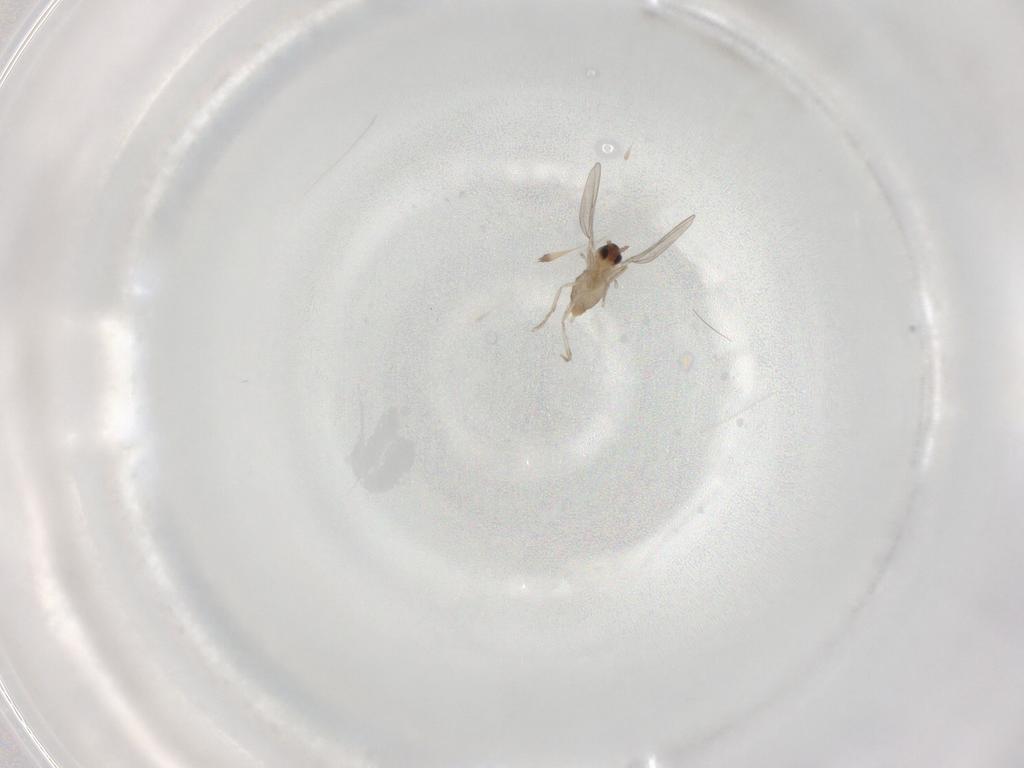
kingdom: Animalia
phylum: Arthropoda
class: Insecta
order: Diptera
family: Cecidomyiidae
